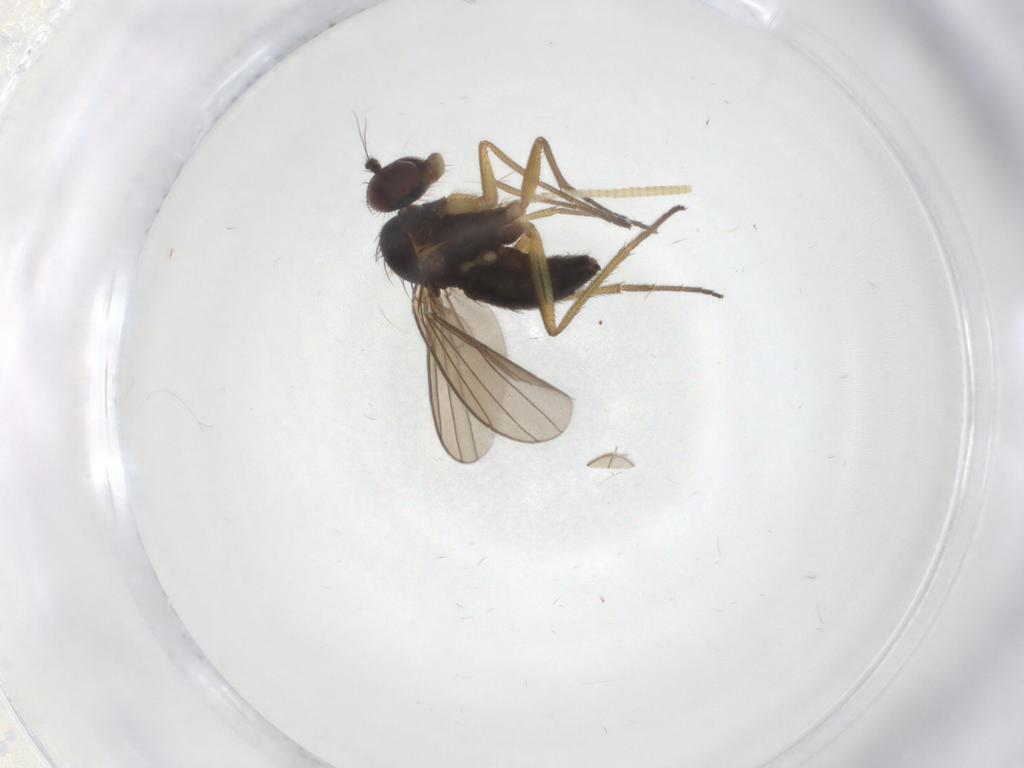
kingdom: Animalia
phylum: Arthropoda
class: Insecta
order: Diptera
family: Dolichopodidae
